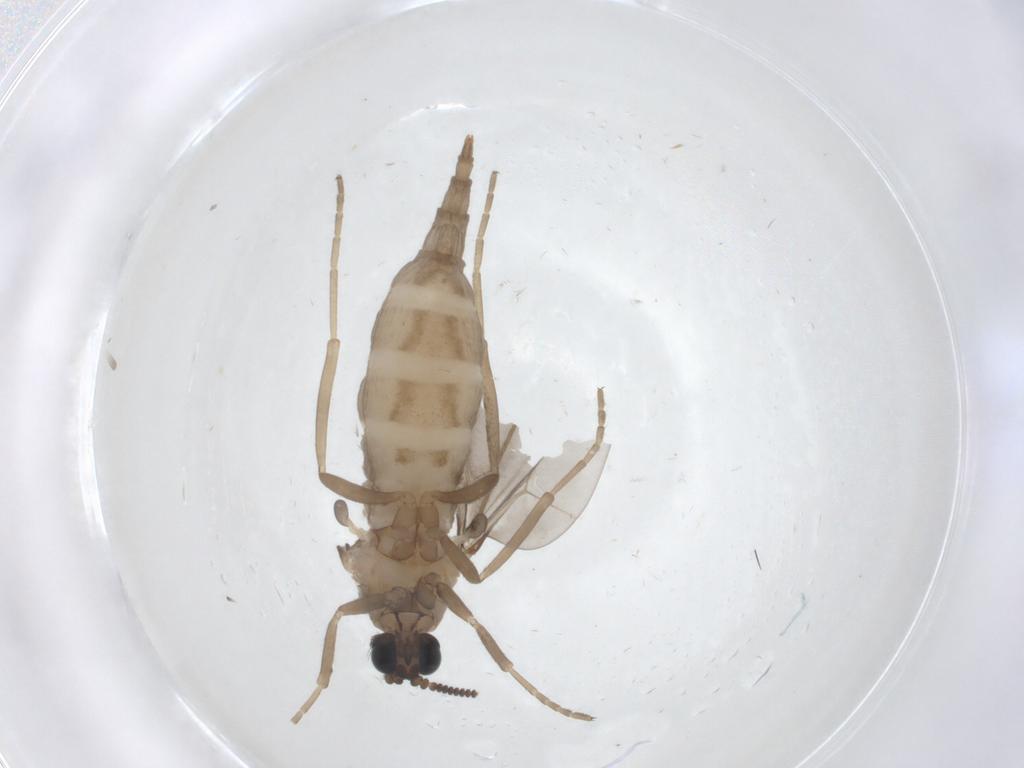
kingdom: Animalia
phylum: Arthropoda
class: Insecta
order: Diptera
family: Cecidomyiidae
